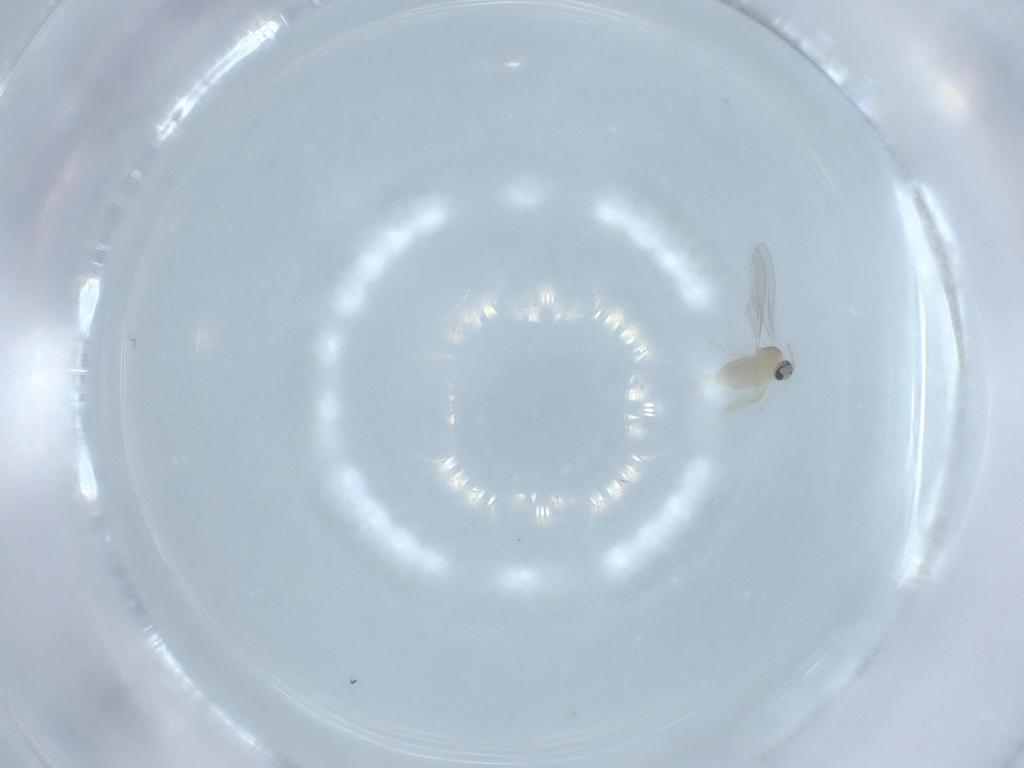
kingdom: Animalia
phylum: Arthropoda
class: Insecta
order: Diptera
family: Cecidomyiidae
